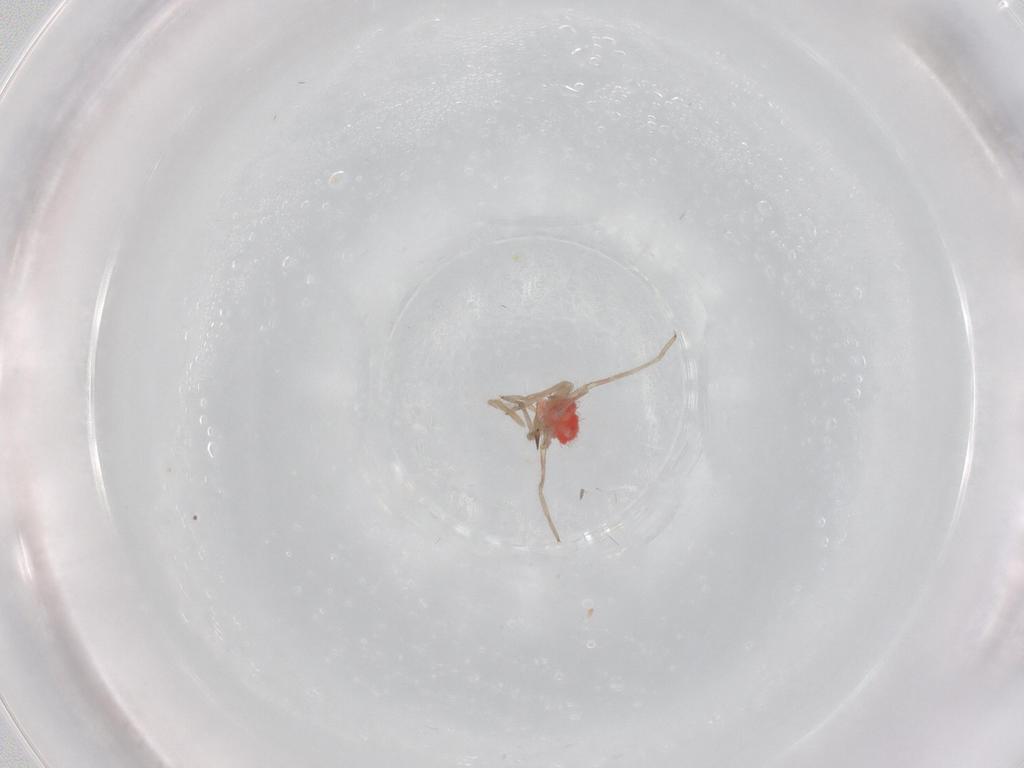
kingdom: Animalia
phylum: Arthropoda
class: Insecta
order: Hemiptera
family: Miridae
